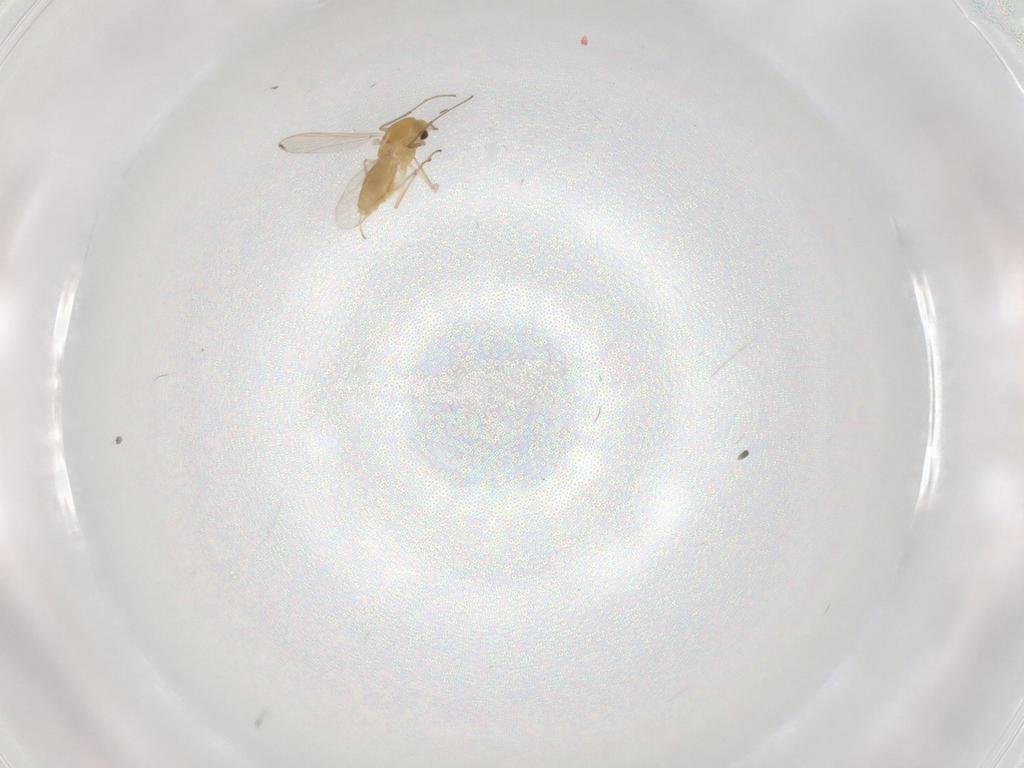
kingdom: Animalia
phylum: Arthropoda
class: Insecta
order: Diptera
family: Chironomidae
